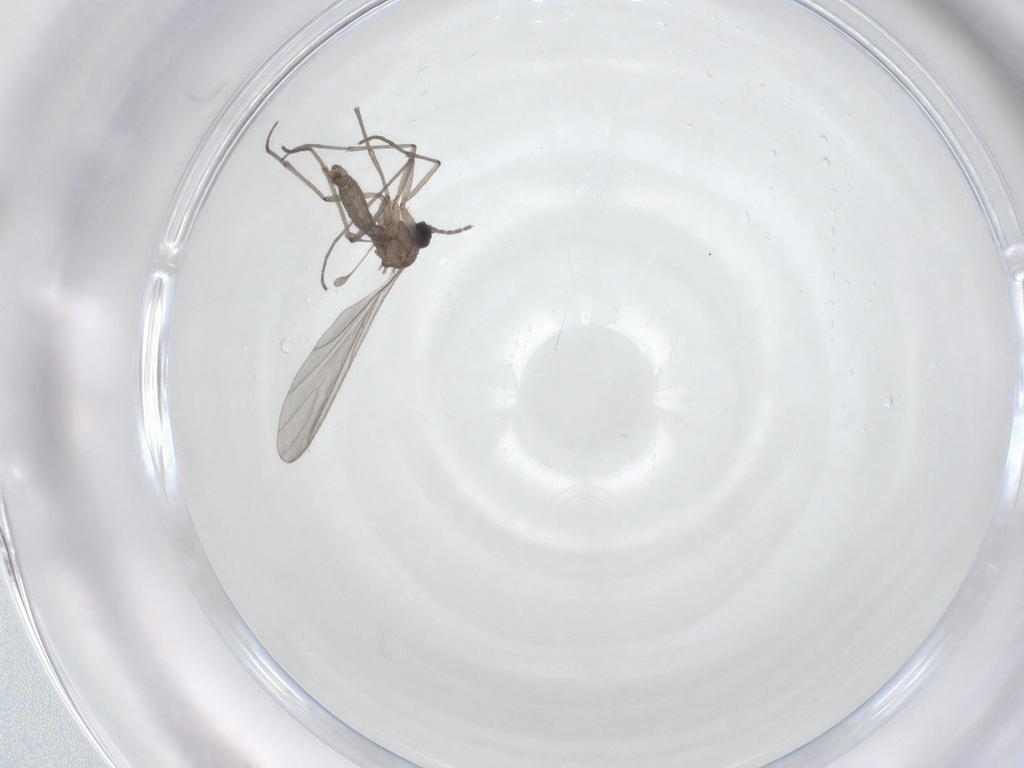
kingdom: Animalia
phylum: Arthropoda
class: Insecta
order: Diptera
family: Sciaridae
